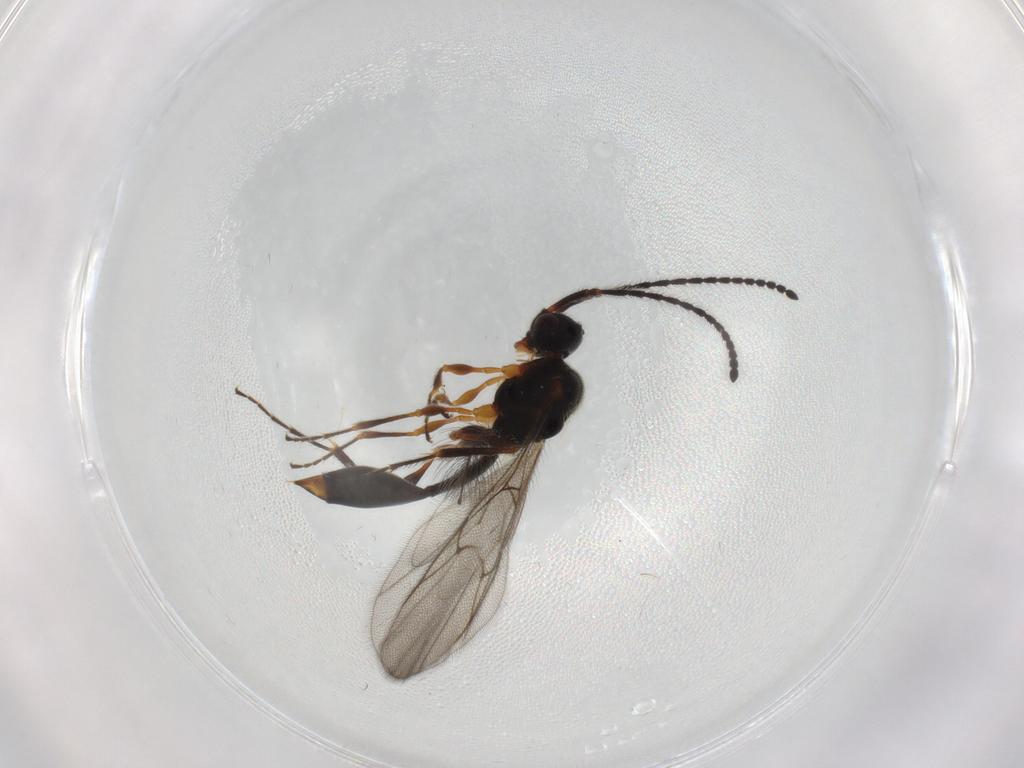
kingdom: Animalia
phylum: Arthropoda
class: Insecta
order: Hymenoptera
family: Diapriidae
